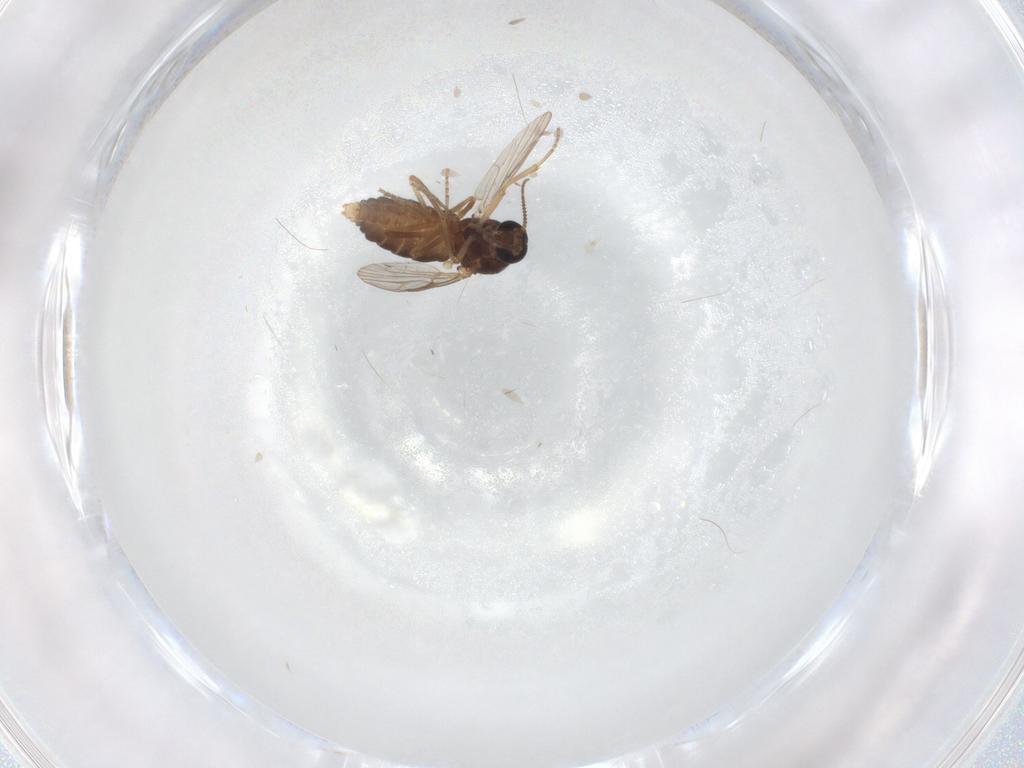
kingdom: Animalia
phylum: Arthropoda
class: Insecta
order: Diptera
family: Ceratopogonidae
